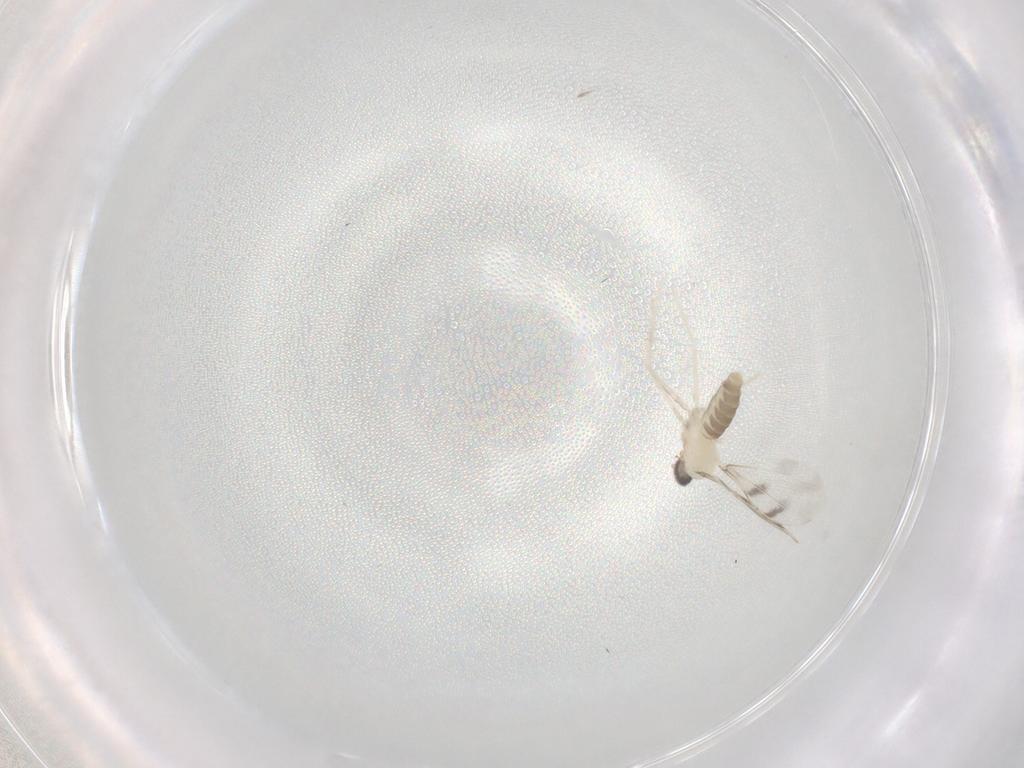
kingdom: Animalia
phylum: Arthropoda
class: Insecta
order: Diptera
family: Cecidomyiidae
